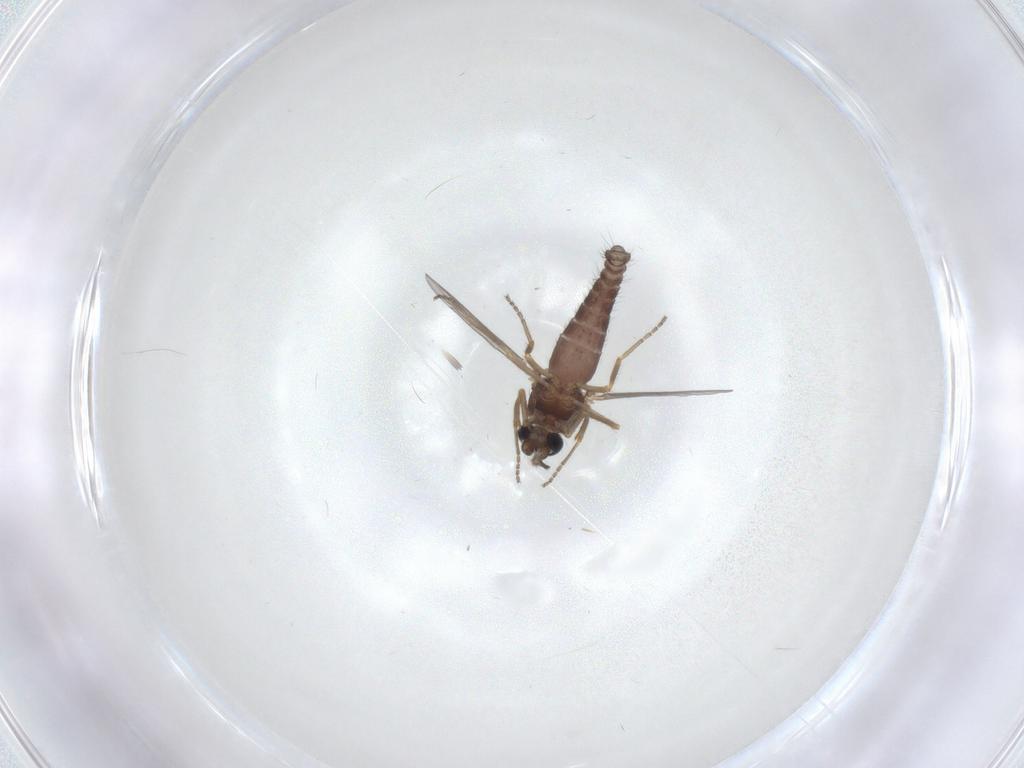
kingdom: Animalia
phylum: Arthropoda
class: Insecta
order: Diptera
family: Ceratopogonidae
